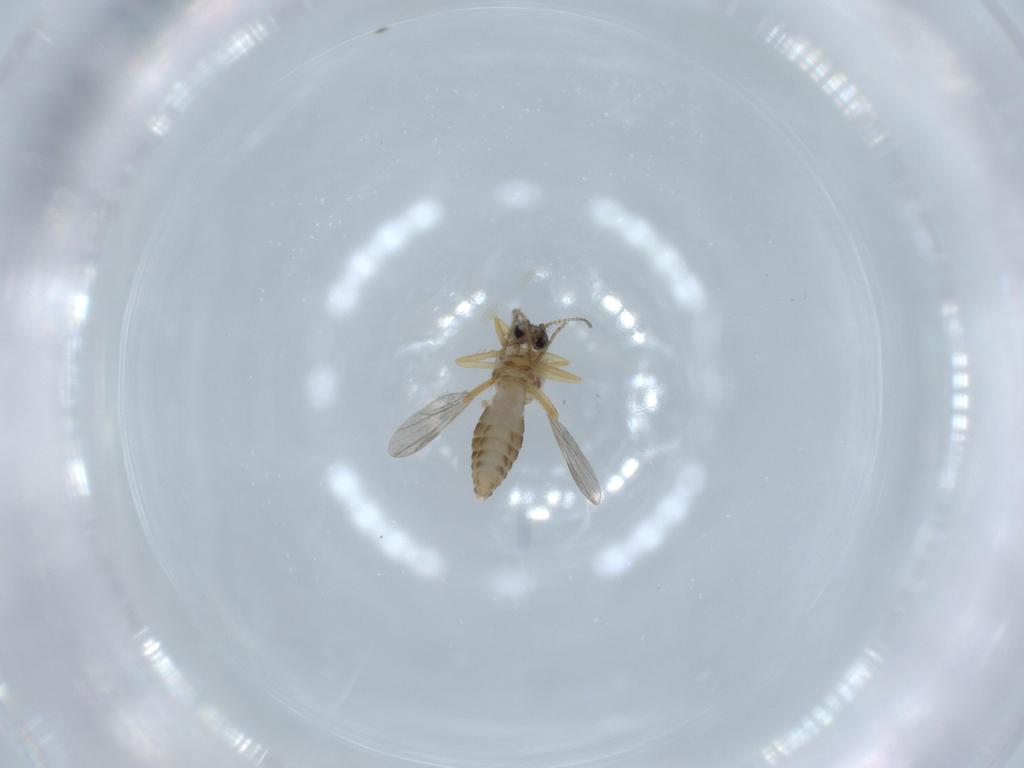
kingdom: Animalia
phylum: Arthropoda
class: Insecta
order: Diptera
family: Ceratopogonidae
